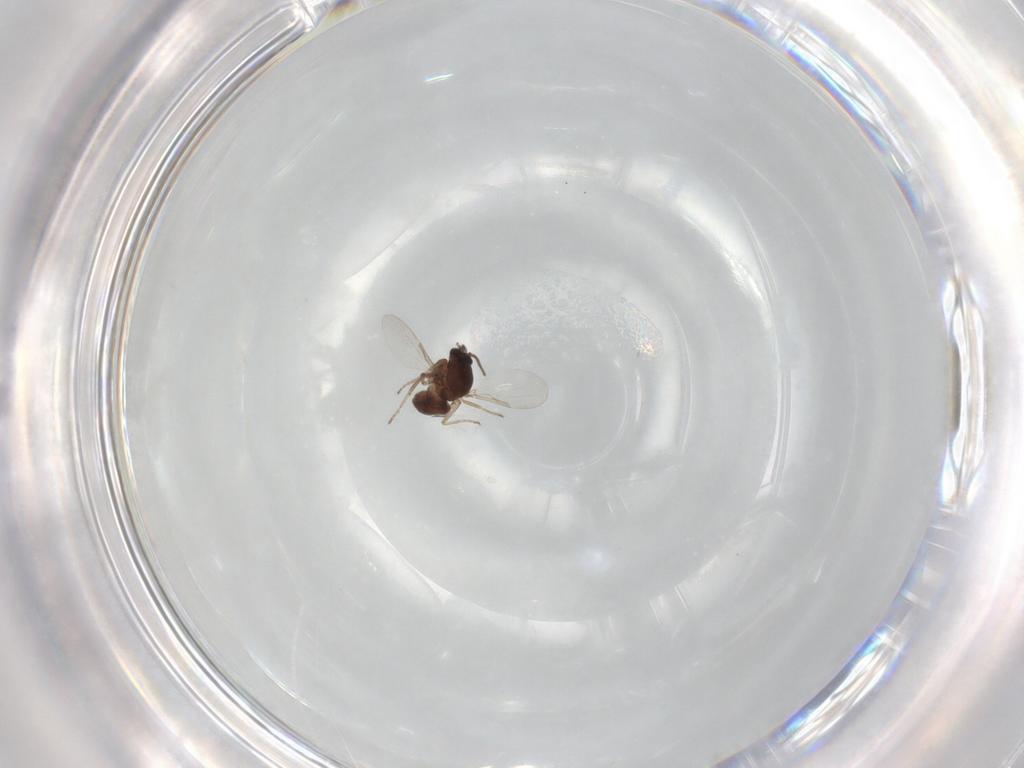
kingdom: Animalia
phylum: Arthropoda
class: Insecta
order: Diptera
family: Ceratopogonidae
